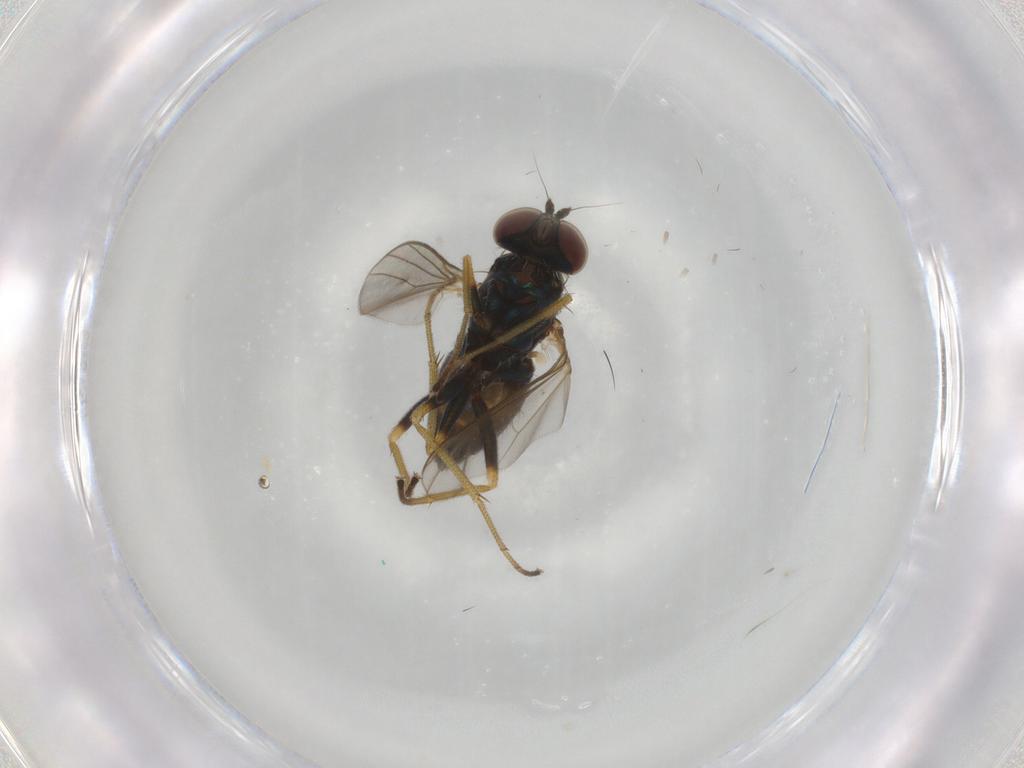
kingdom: Animalia
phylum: Arthropoda
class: Insecta
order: Diptera
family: Dolichopodidae
